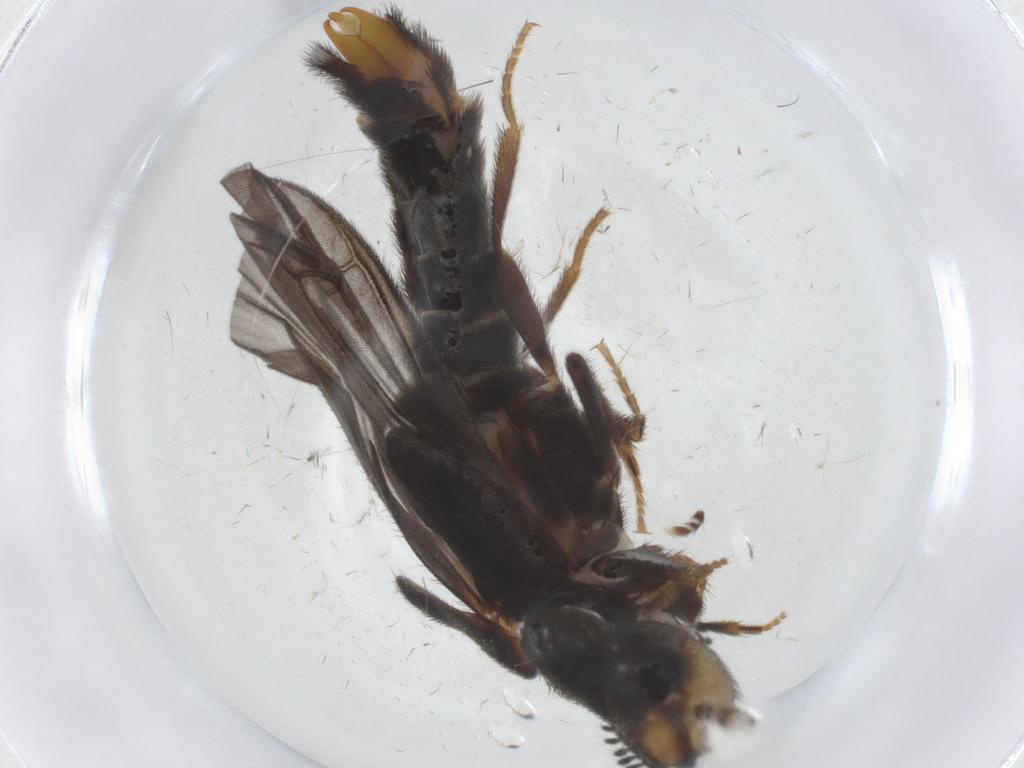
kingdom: Animalia
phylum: Arthropoda
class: Insecta
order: Coleoptera
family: Phengodidae
